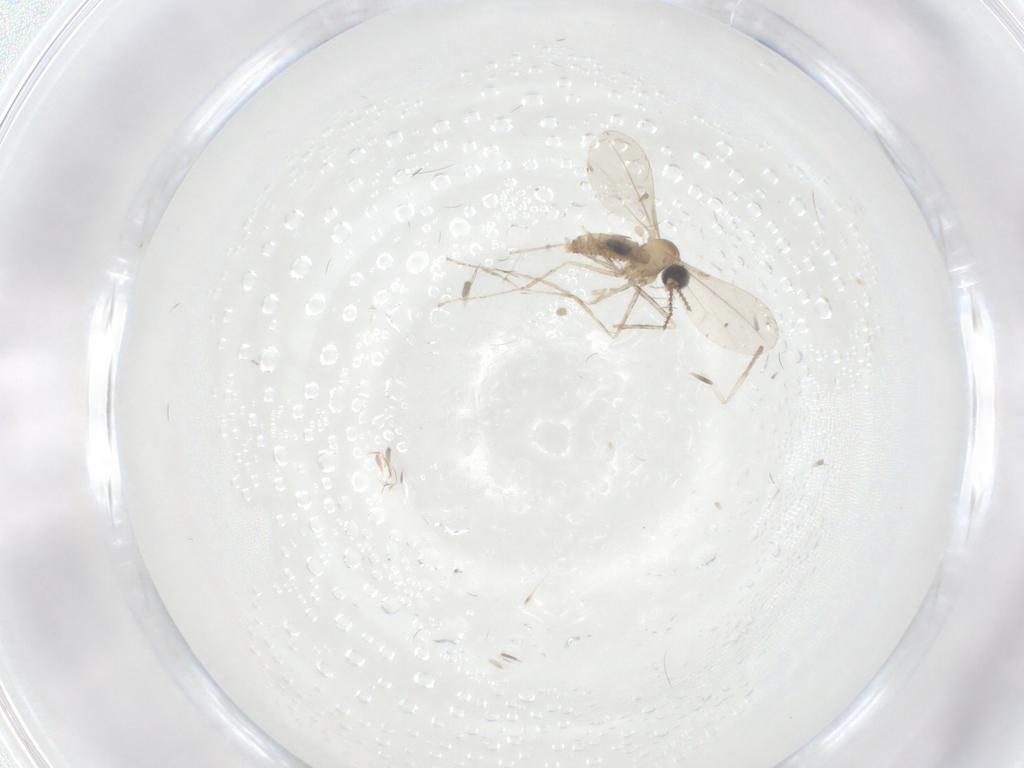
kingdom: Animalia
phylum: Arthropoda
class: Insecta
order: Diptera
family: Cecidomyiidae
